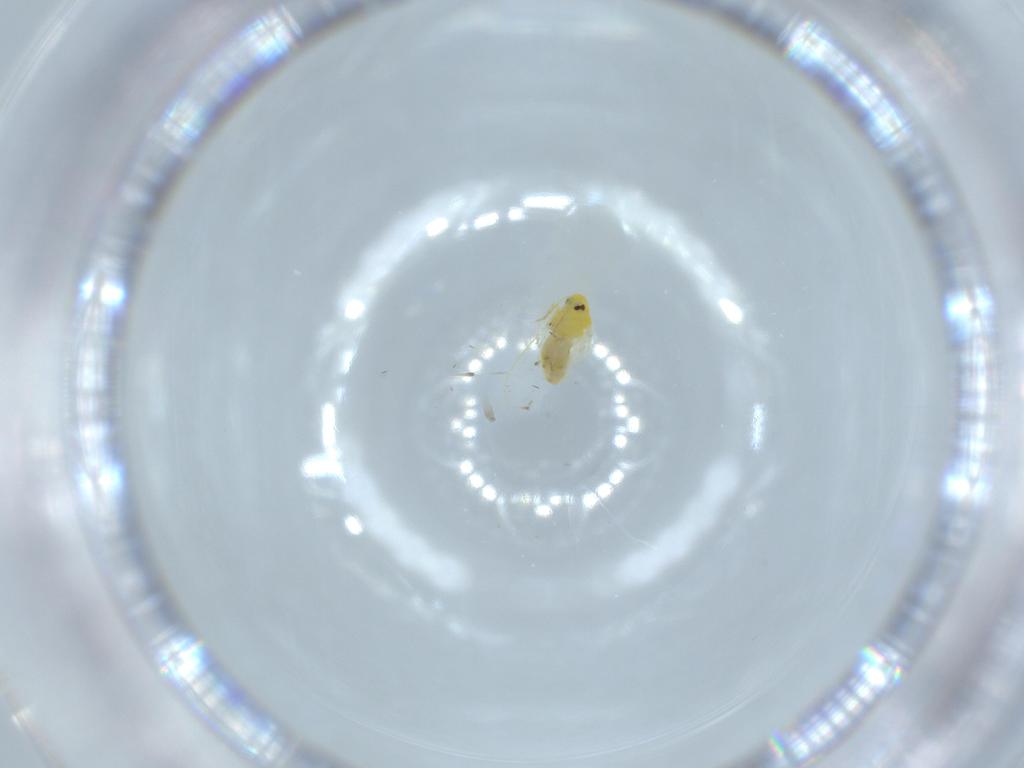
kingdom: Animalia
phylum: Arthropoda
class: Insecta
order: Hemiptera
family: Aleyrodidae
